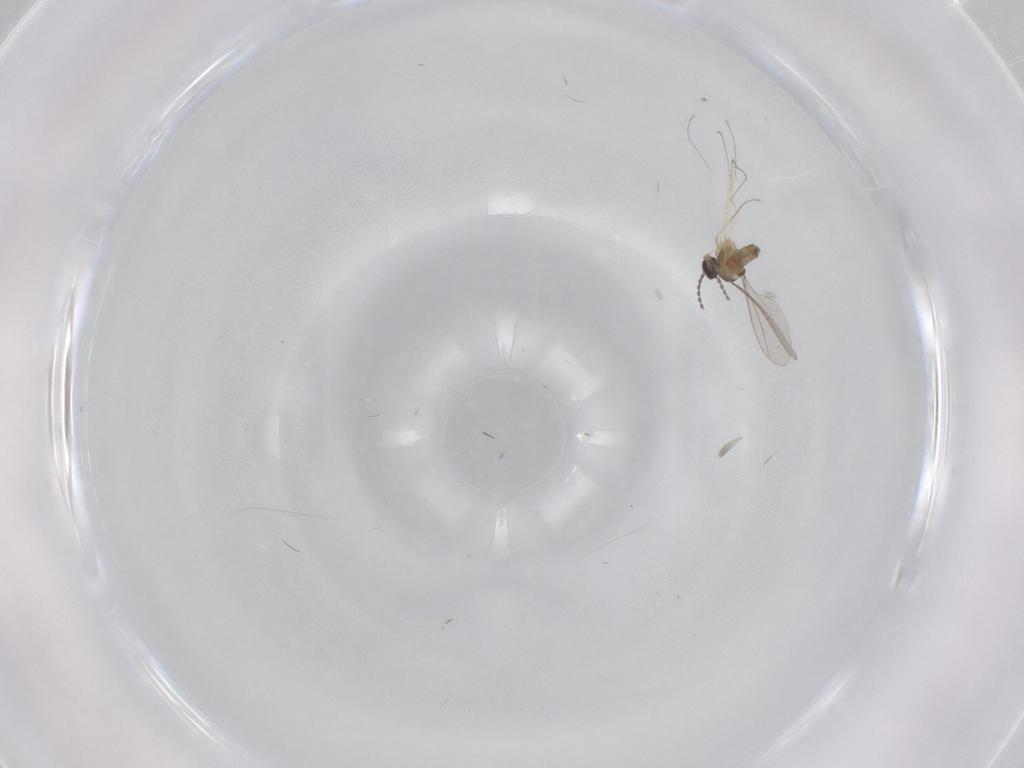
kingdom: Animalia
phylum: Arthropoda
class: Insecta
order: Diptera
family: Cecidomyiidae
